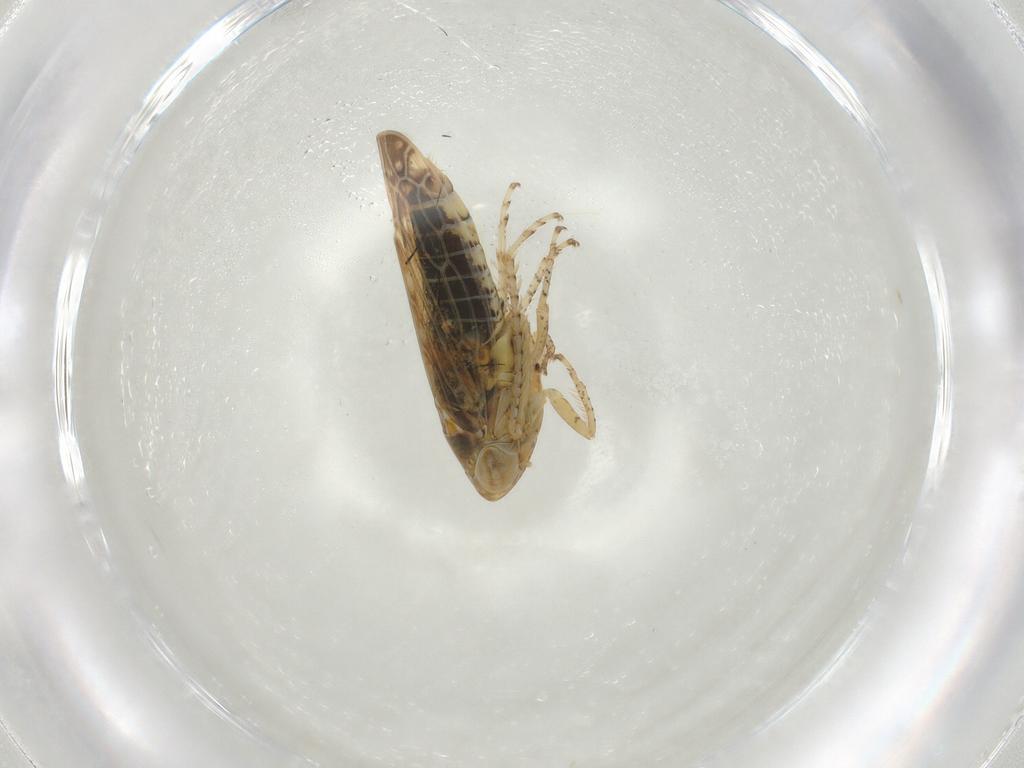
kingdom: Animalia
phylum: Arthropoda
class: Insecta
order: Hemiptera
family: Cicadellidae
